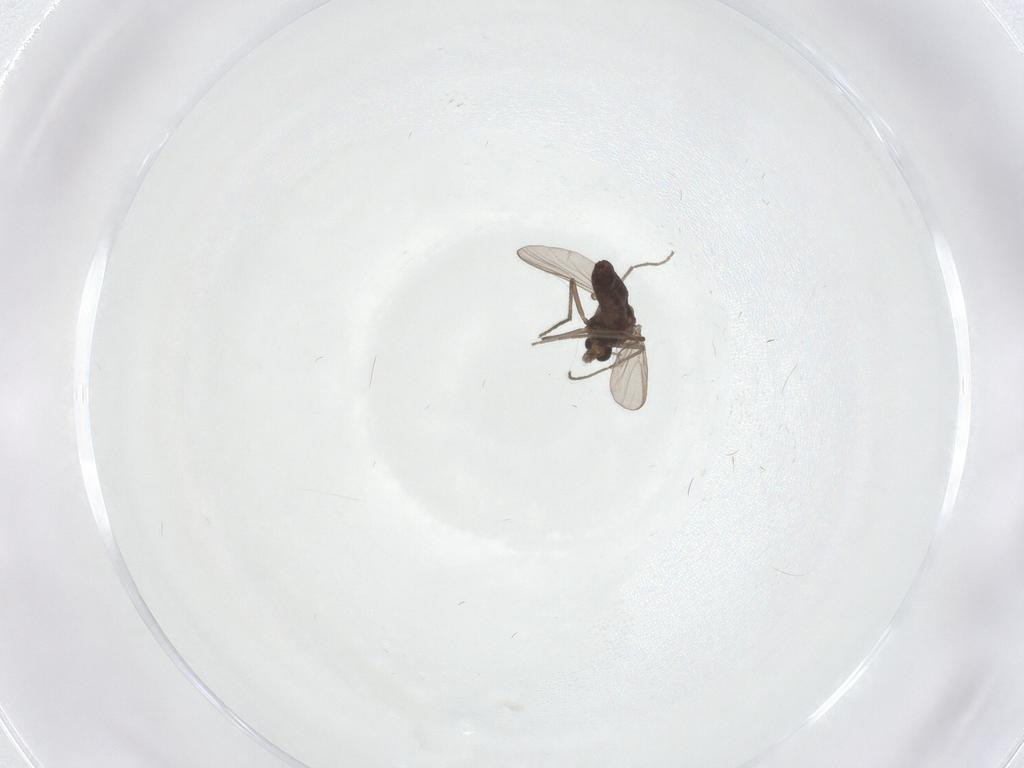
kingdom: Animalia
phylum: Arthropoda
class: Insecta
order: Diptera
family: Chironomidae
